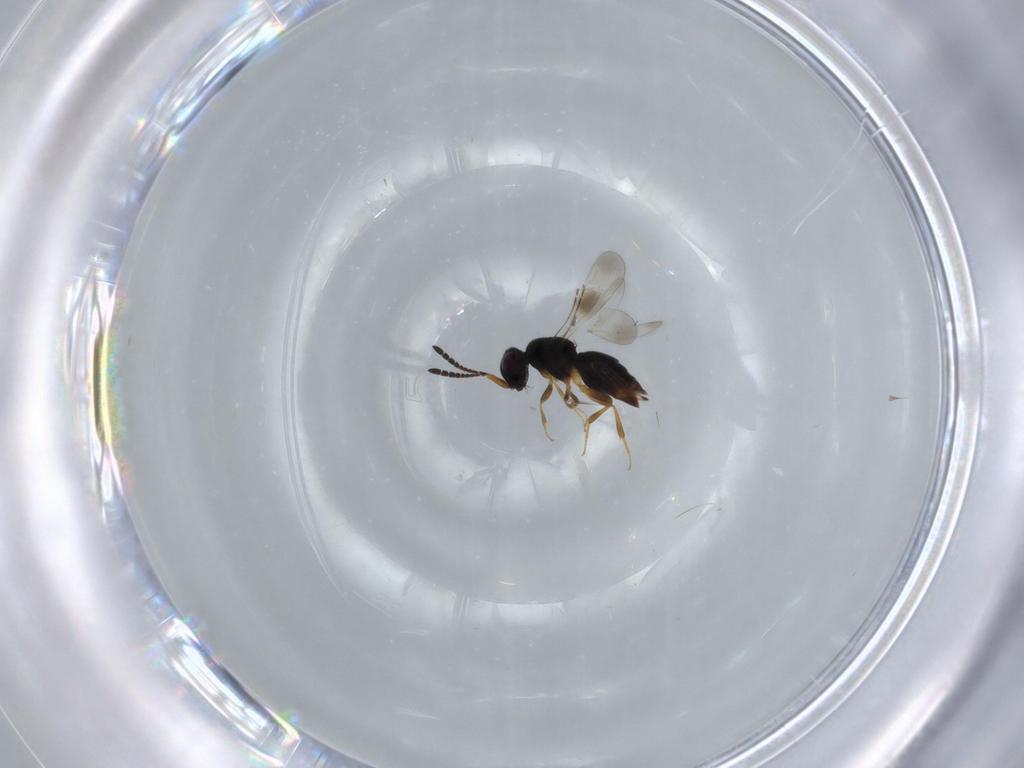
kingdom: Animalia
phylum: Arthropoda
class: Insecta
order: Hymenoptera
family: Ceraphronidae
